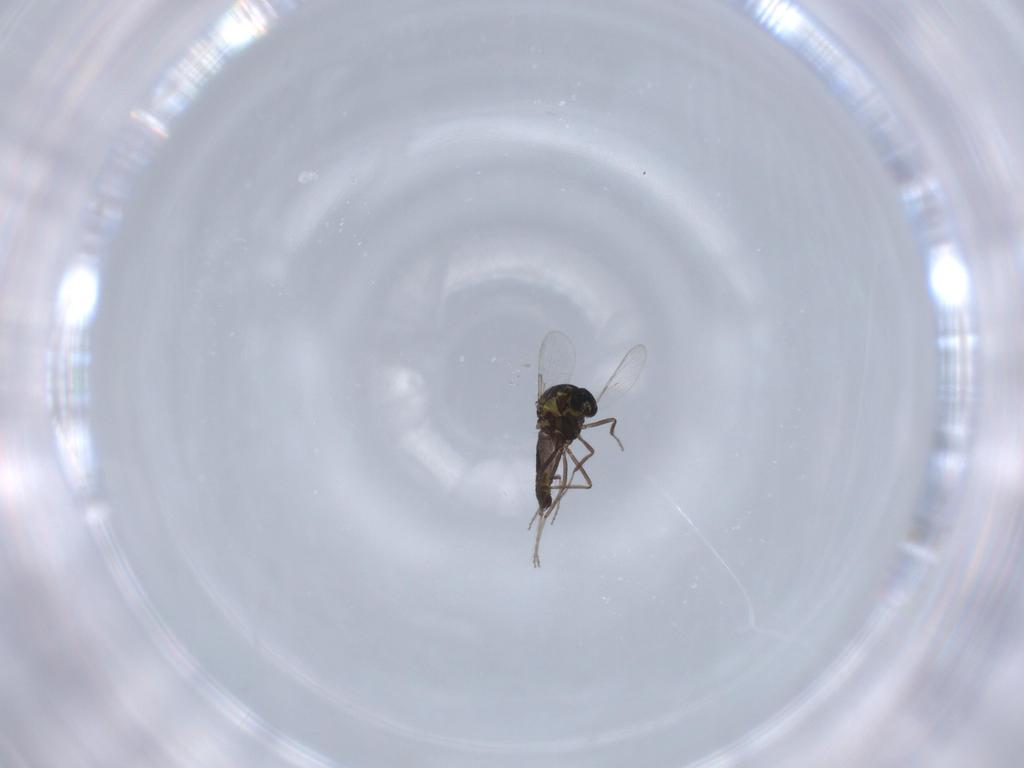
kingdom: Animalia
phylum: Arthropoda
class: Insecta
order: Diptera
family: Ceratopogonidae
